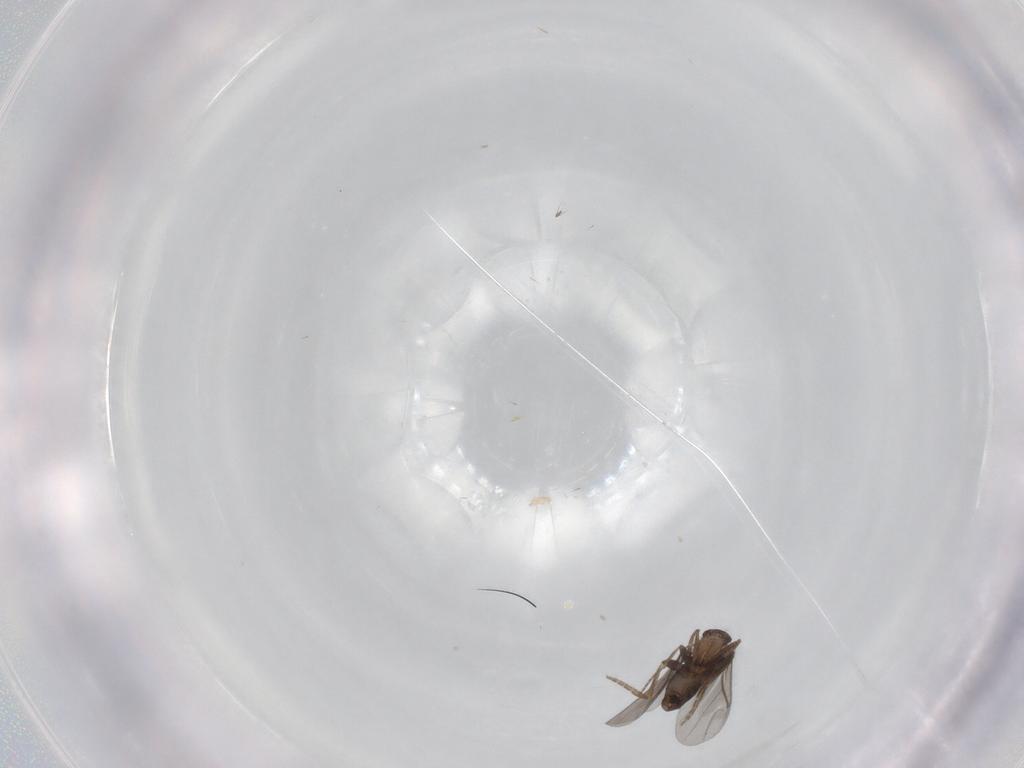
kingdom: Animalia
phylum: Arthropoda
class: Insecta
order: Diptera
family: Chironomidae
